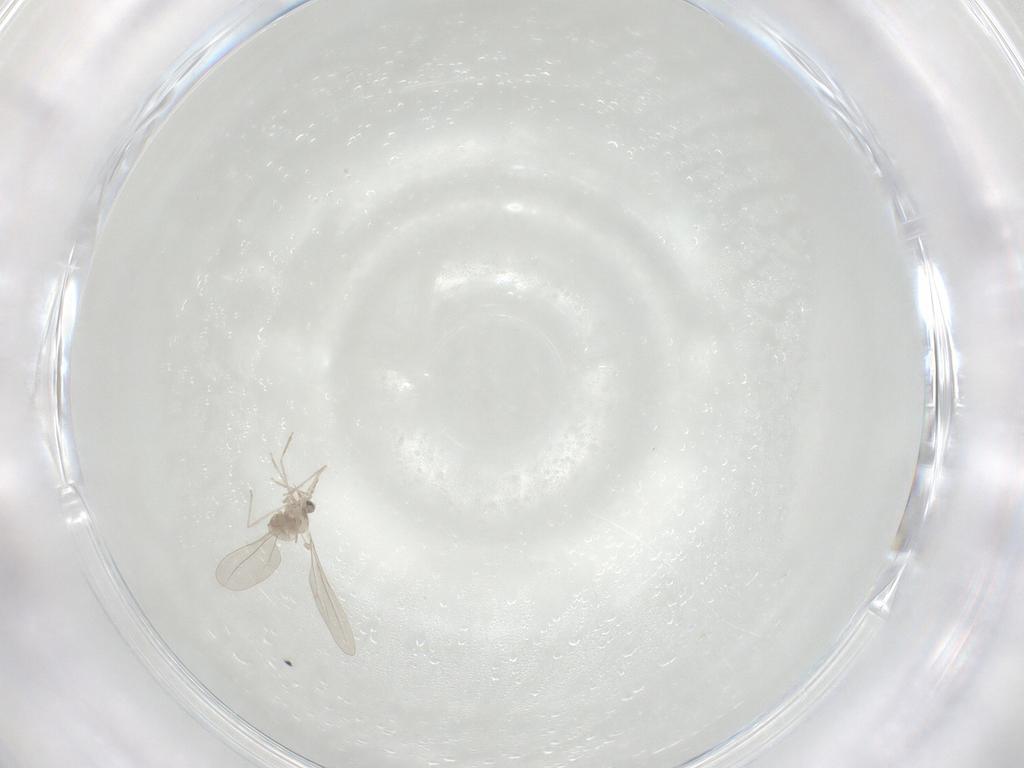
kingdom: Animalia
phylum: Arthropoda
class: Insecta
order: Diptera
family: Cecidomyiidae
